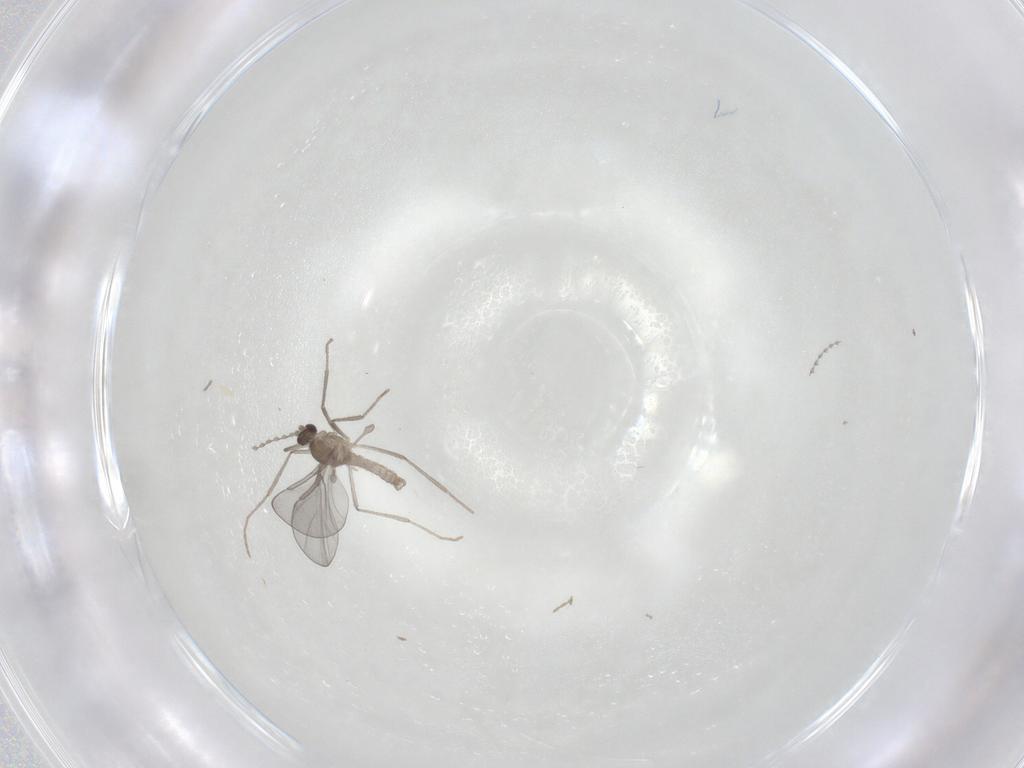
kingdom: Animalia
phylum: Arthropoda
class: Insecta
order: Diptera
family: Cecidomyiidae
